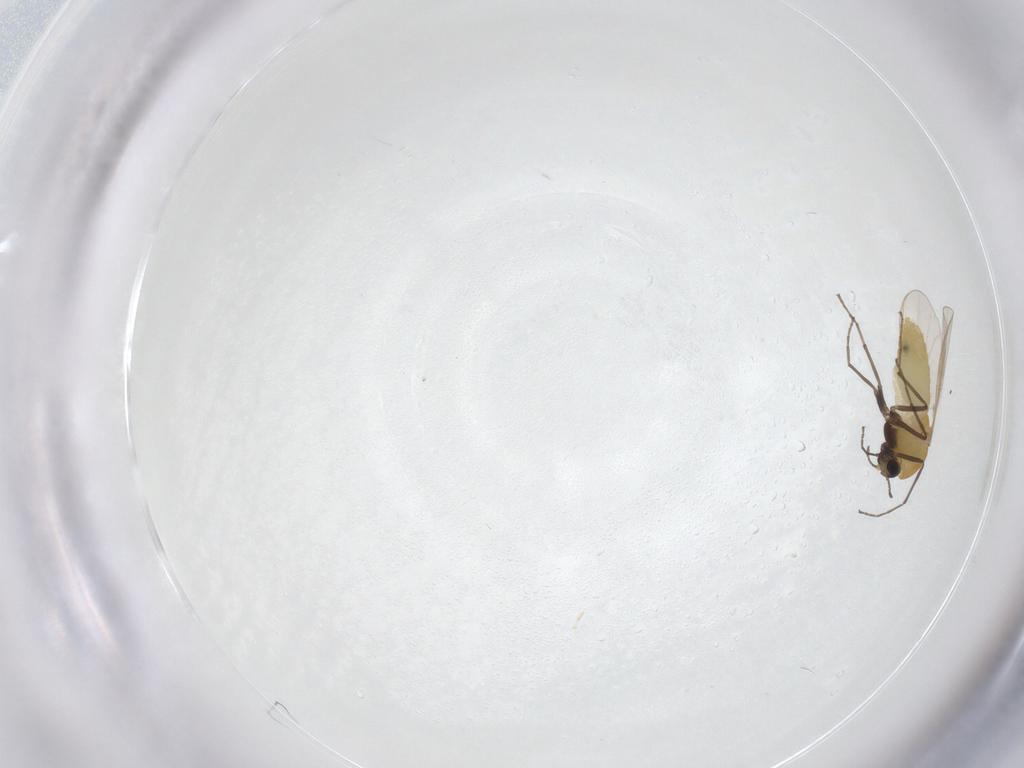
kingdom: Animalia
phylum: Arthropoda
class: Insecta
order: Diptera
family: Chironomidae
